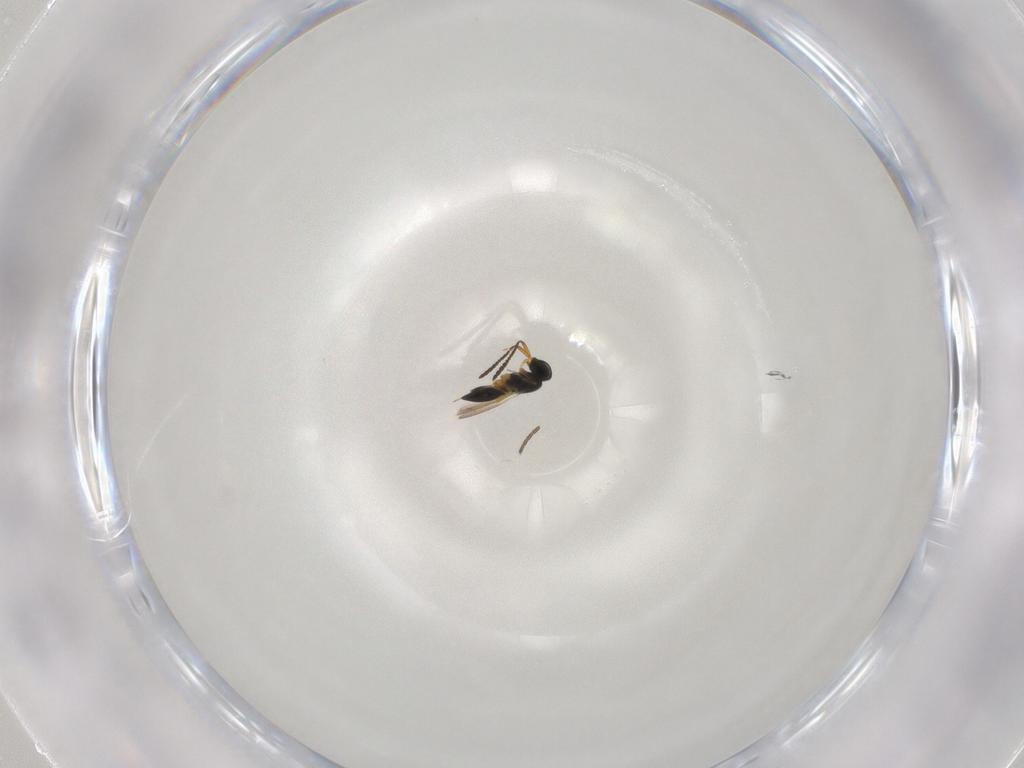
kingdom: Animalia
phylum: Arthropoda
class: Insecta
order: Hymenoptera
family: Scelionidae
